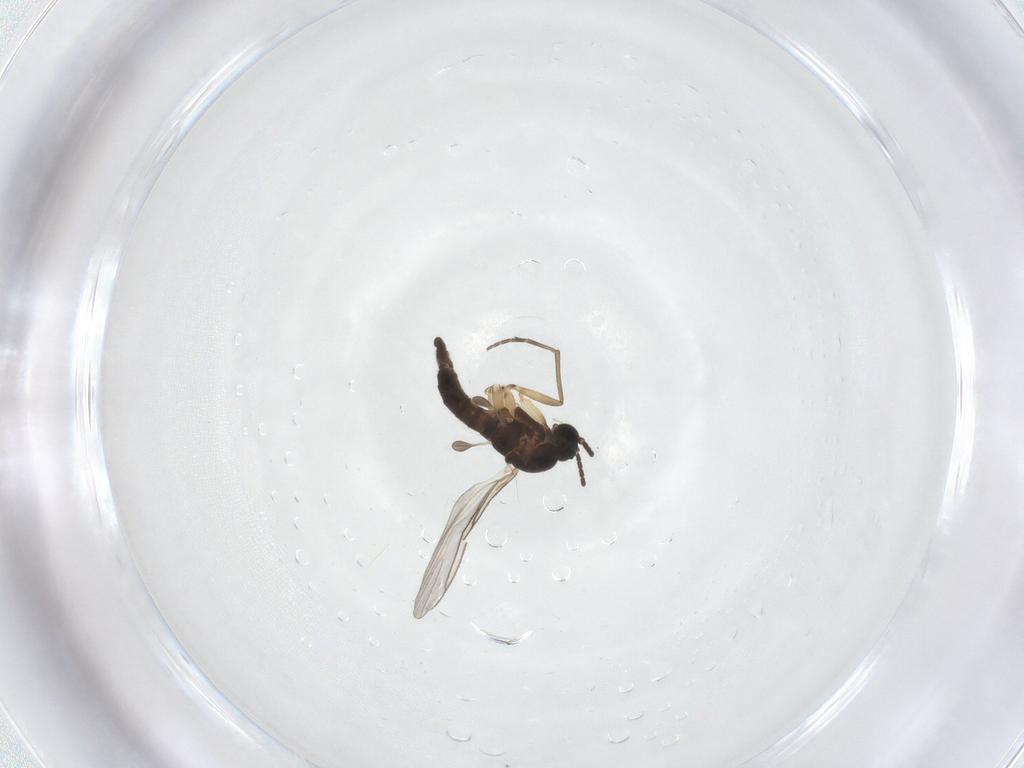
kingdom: Animalia
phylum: Arthropoda
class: Insecta
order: Diptera
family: Sciaridae
